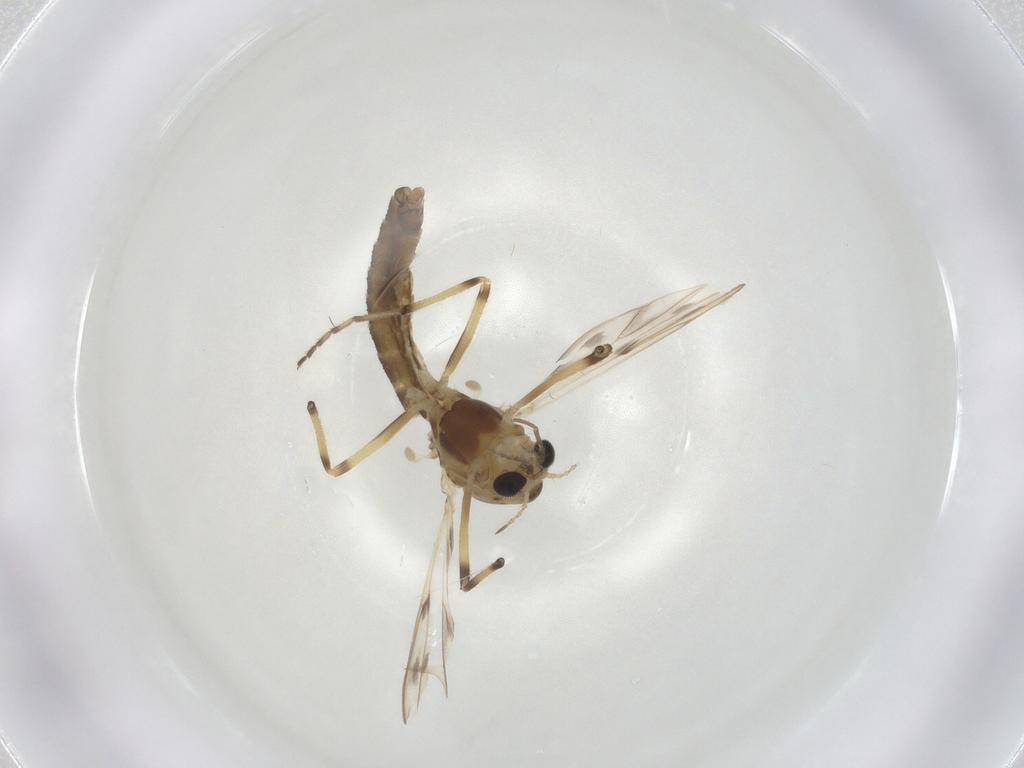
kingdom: Animalia
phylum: Arthropoda
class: Insecta
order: Diptera
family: Chironomidae
